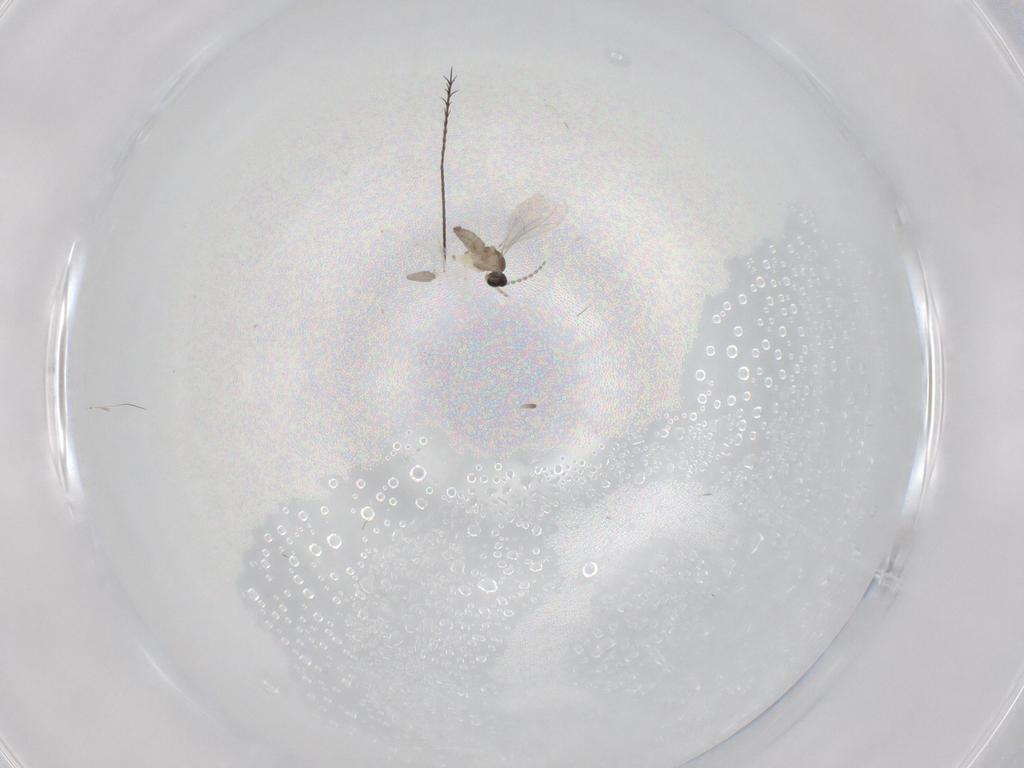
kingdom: Animalia
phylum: Arthropoda
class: Insecta
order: Diptera
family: Cecidomyiidae
